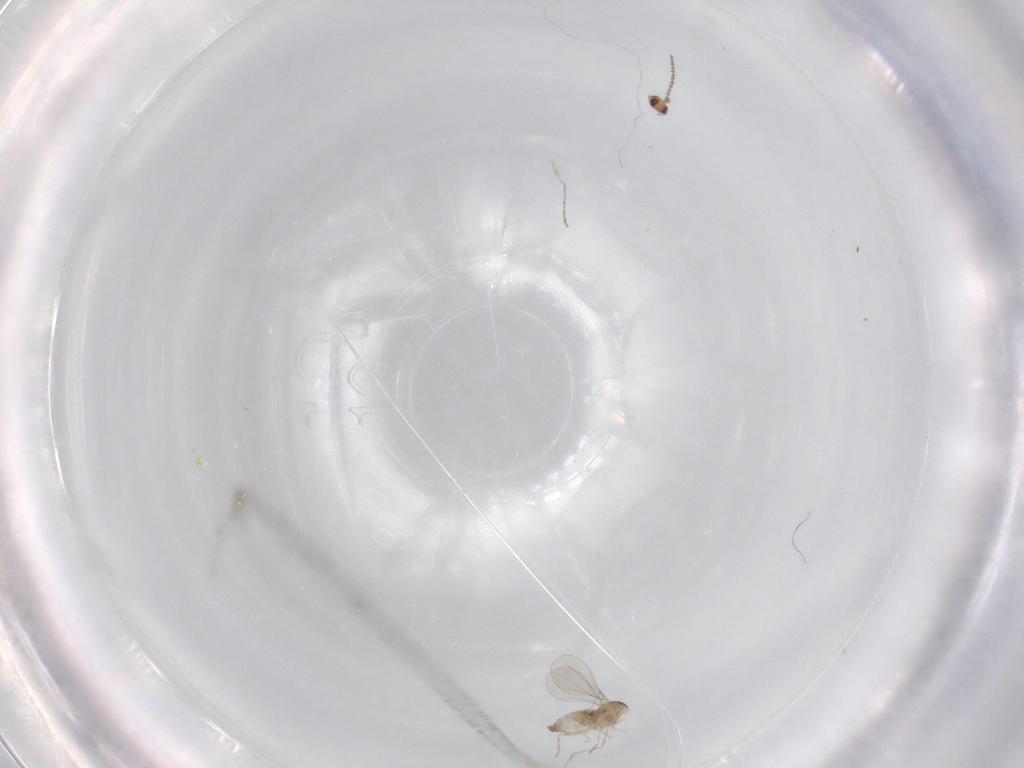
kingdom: Animalia
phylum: Arthropoda
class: Insecta
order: Diptera
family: Cecidomyiidae
